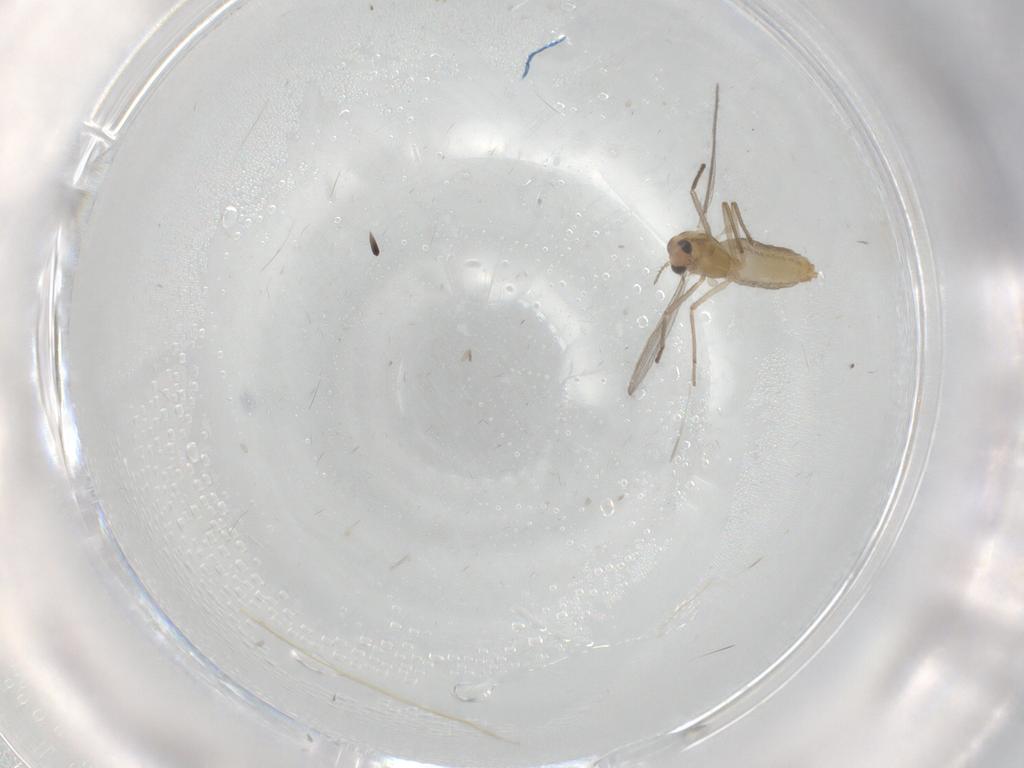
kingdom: Animalia
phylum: Arthropoda
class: Insecta
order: Diptera
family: Chironomidae
